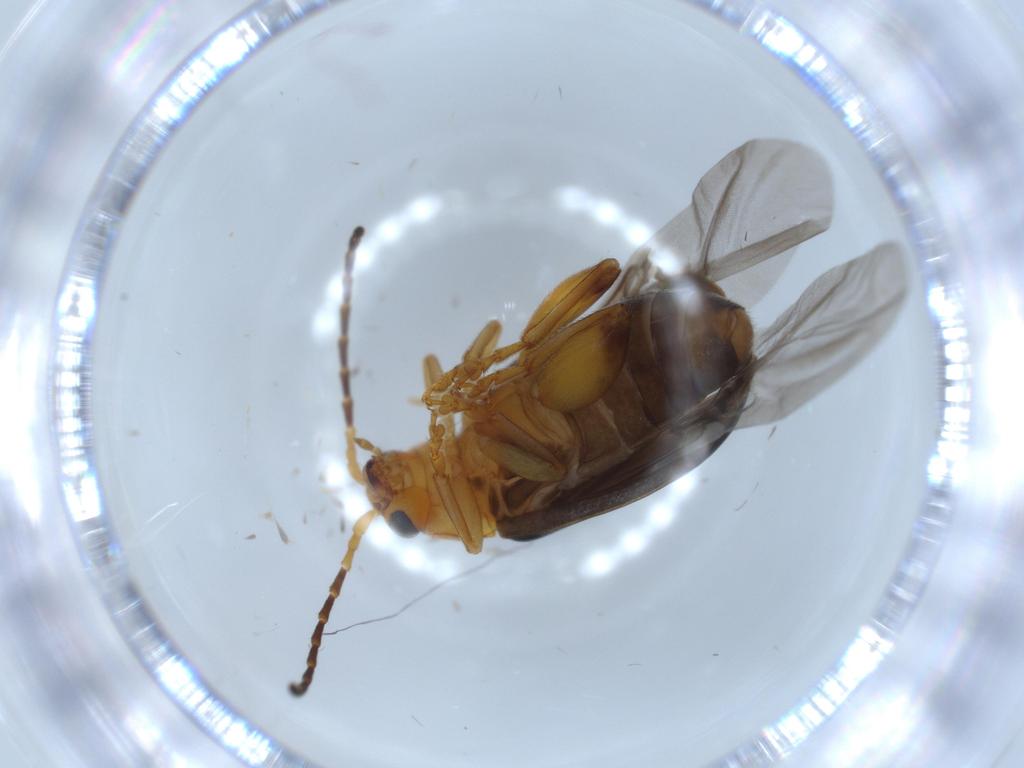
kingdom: Animalia
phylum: Arthropoda
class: Insecta
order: Coleoptera
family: Chrysomelidae
